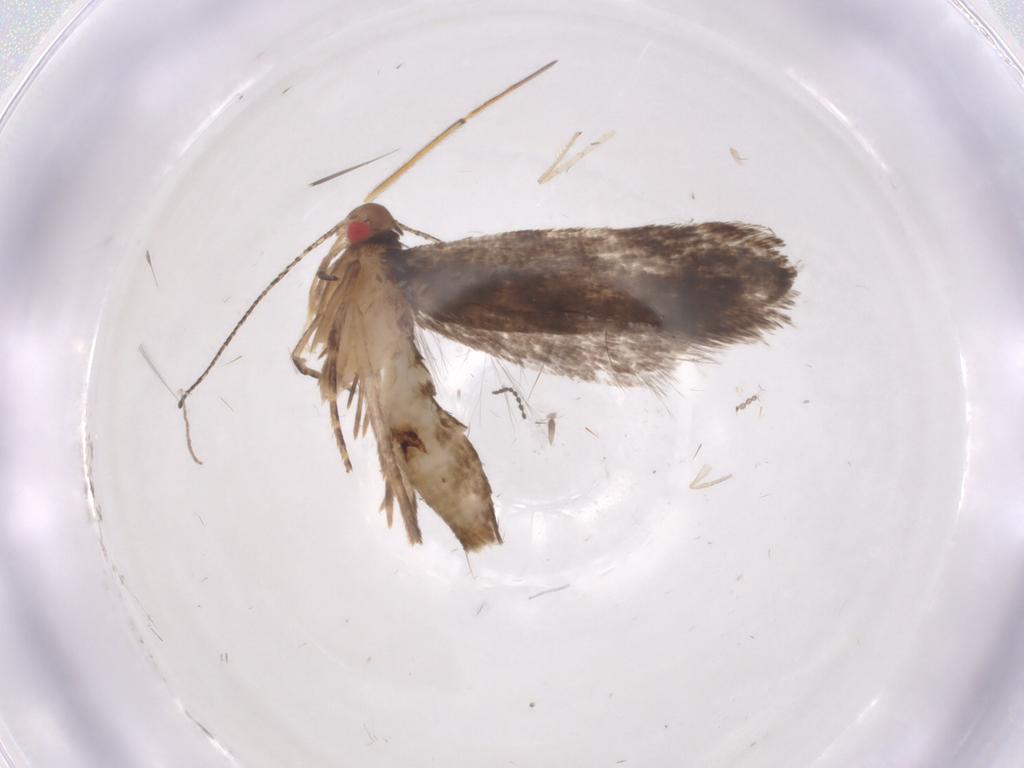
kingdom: Animalia
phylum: Arthropoda
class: Insecta
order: Lepidoptera
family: Gelechiidae
